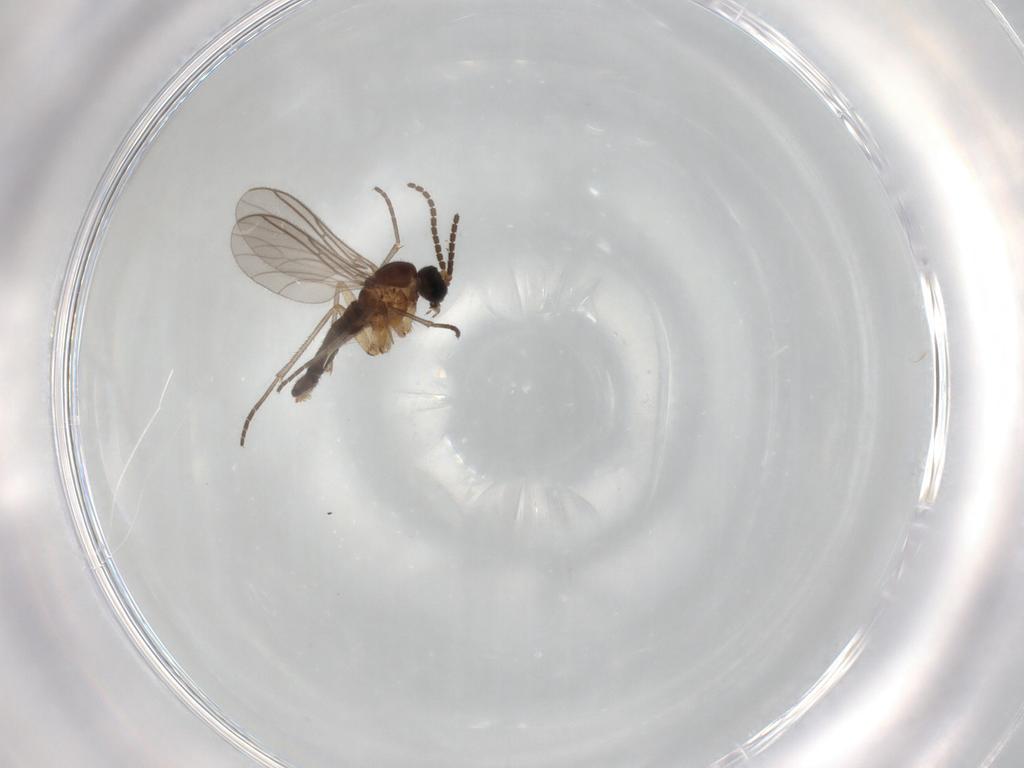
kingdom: Animalia
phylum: Arthropoda
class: Insecta
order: Diptera
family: Sciaridae
